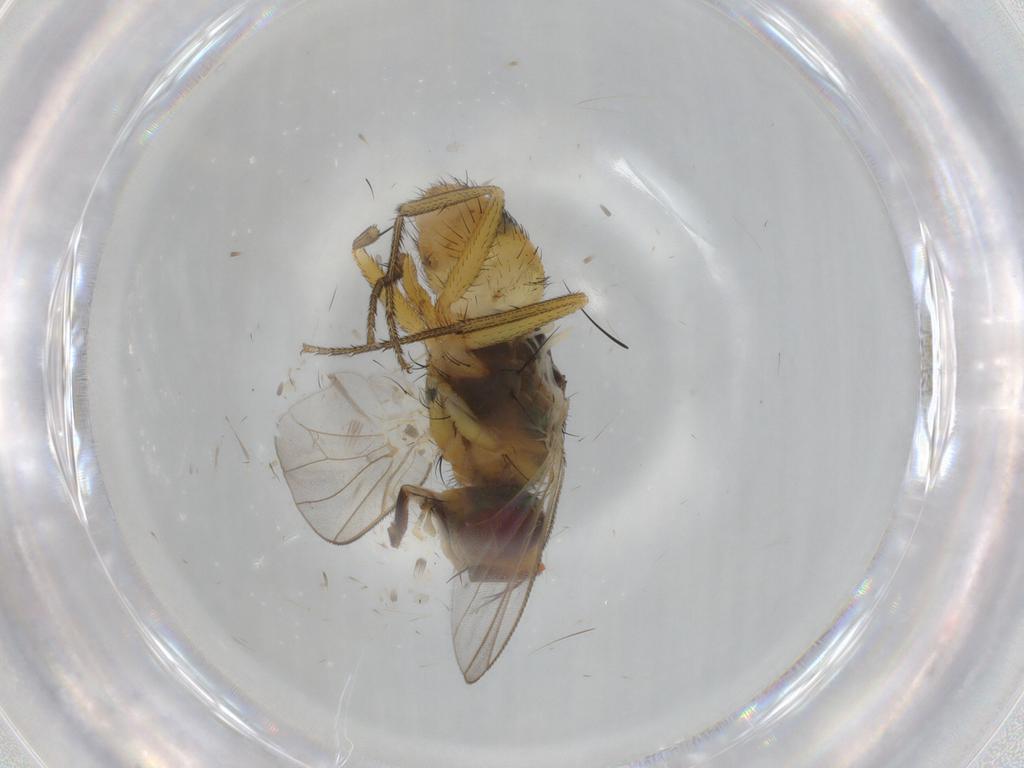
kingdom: Animalia
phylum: Arthropoda
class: Insecta
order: Diptera
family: Muscidae
